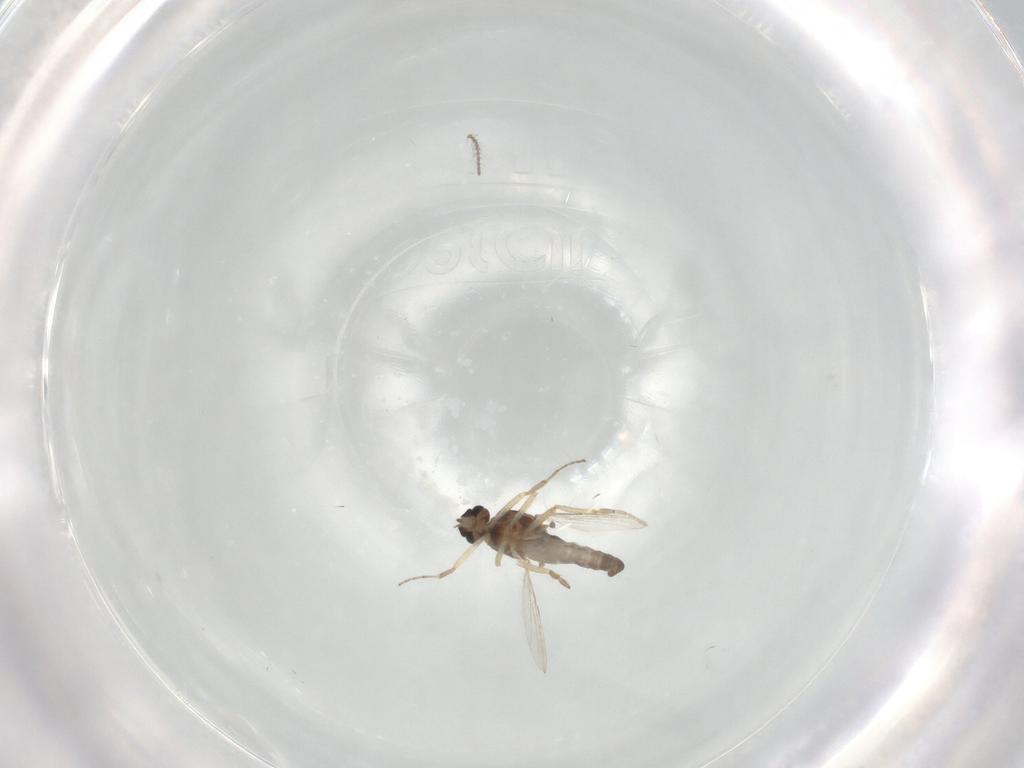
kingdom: Animalia
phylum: Arthropoda
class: Insecta
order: Diptera
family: Ceratopogonidae
